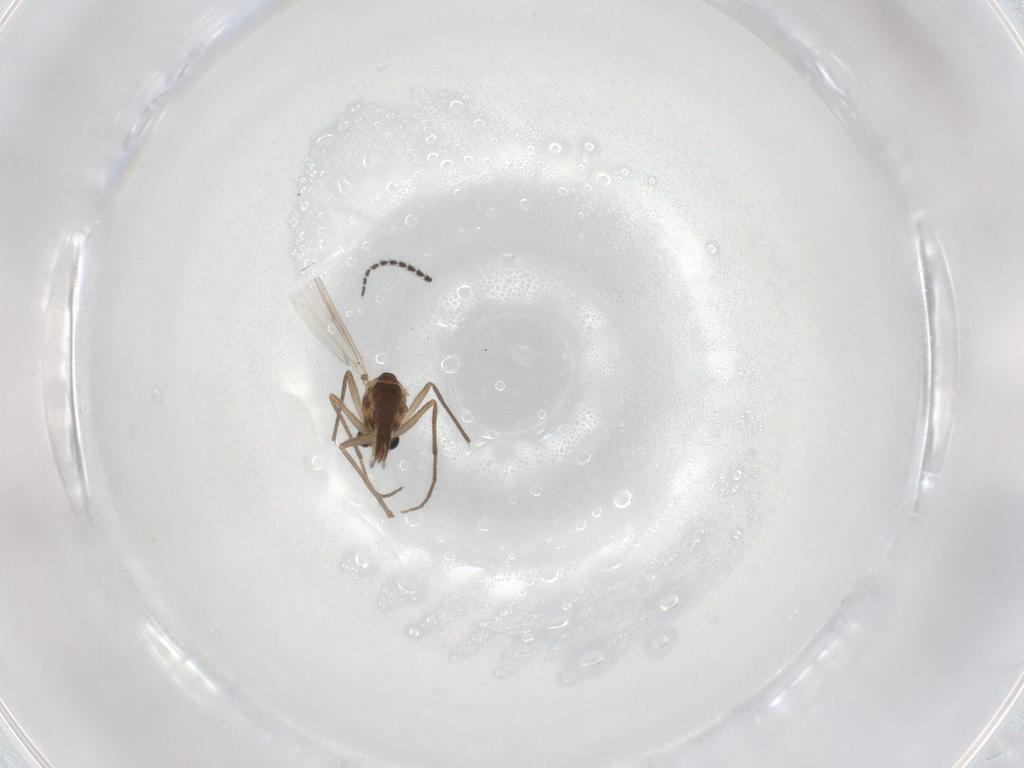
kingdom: Animalia
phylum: Arthropoda
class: Insecta
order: Diptera
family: Chironomidae
